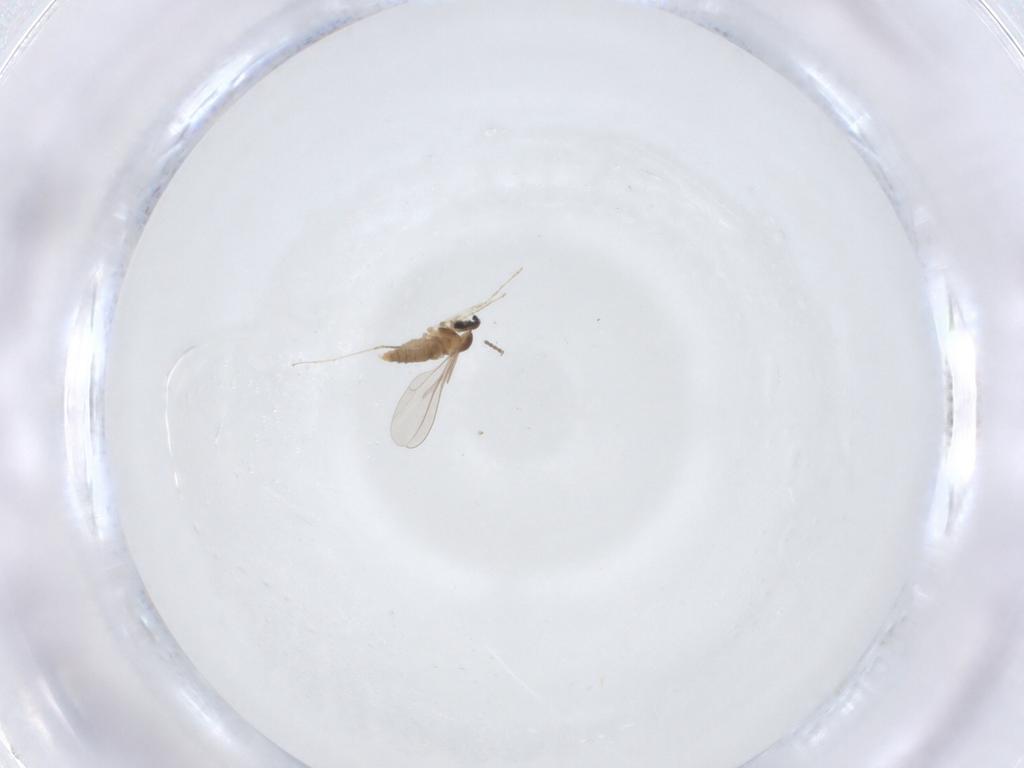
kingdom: Animalia
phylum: Arthropoda
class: Insecta
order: Diptera
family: Cecidomyiidae
